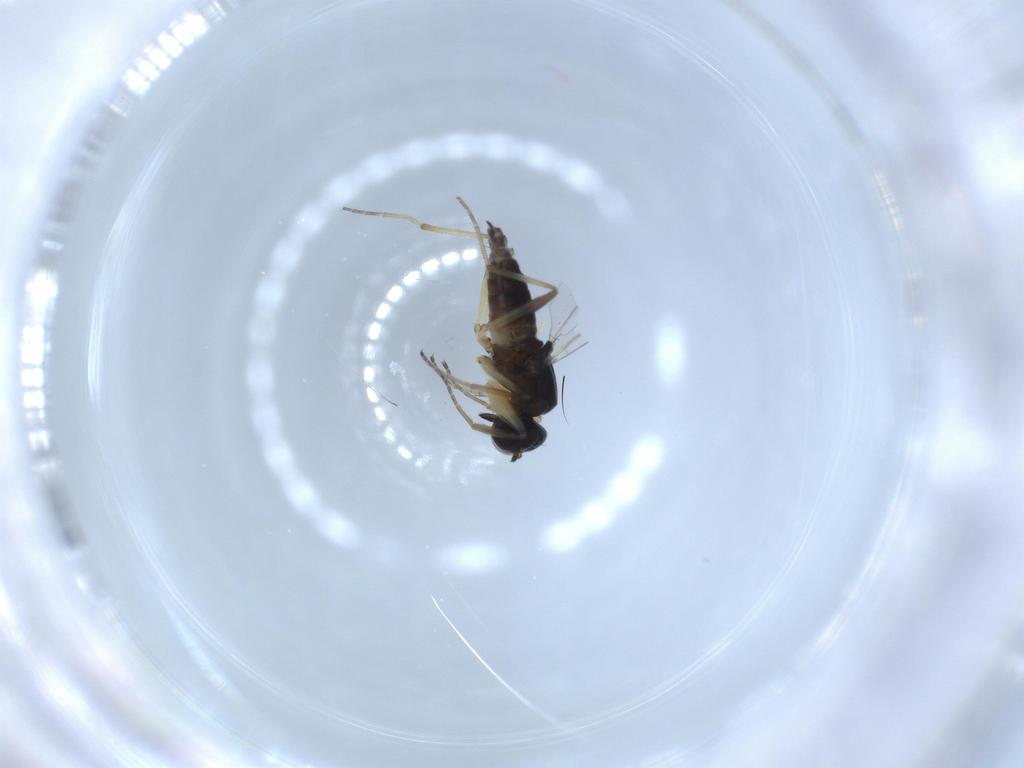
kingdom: Animalia
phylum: Arthropoda
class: Insecta
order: Diptera
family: Hybotidae
